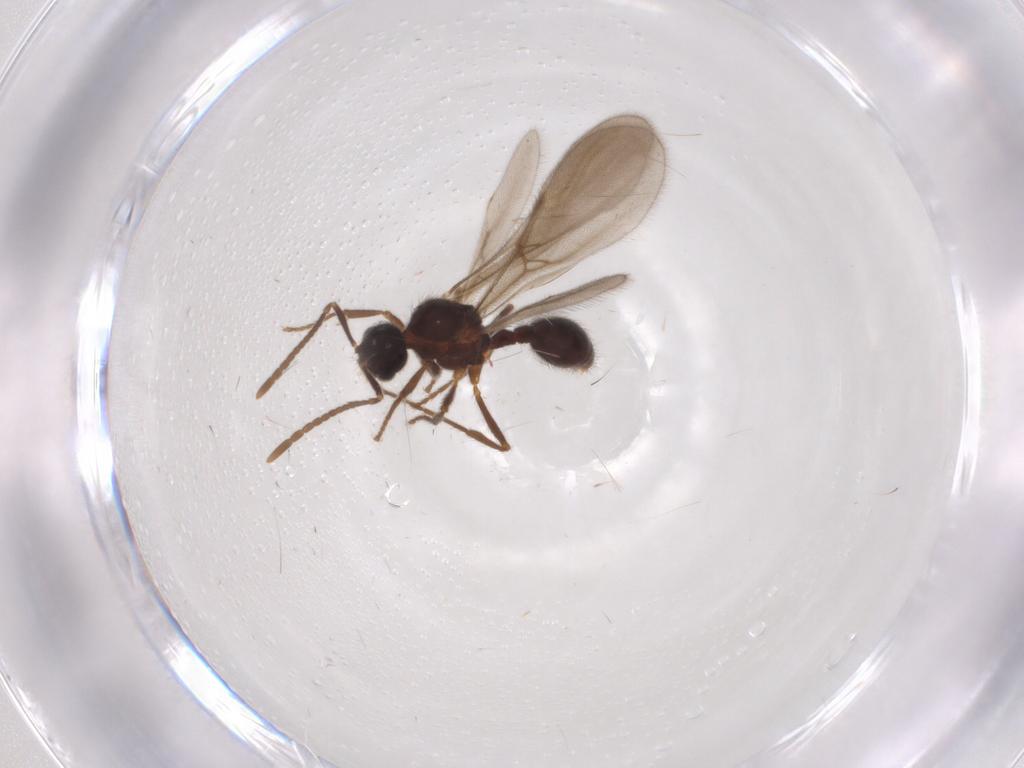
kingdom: Animalia
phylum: Arthropoda
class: Insecta
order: Hymenoptera
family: Formicidae
